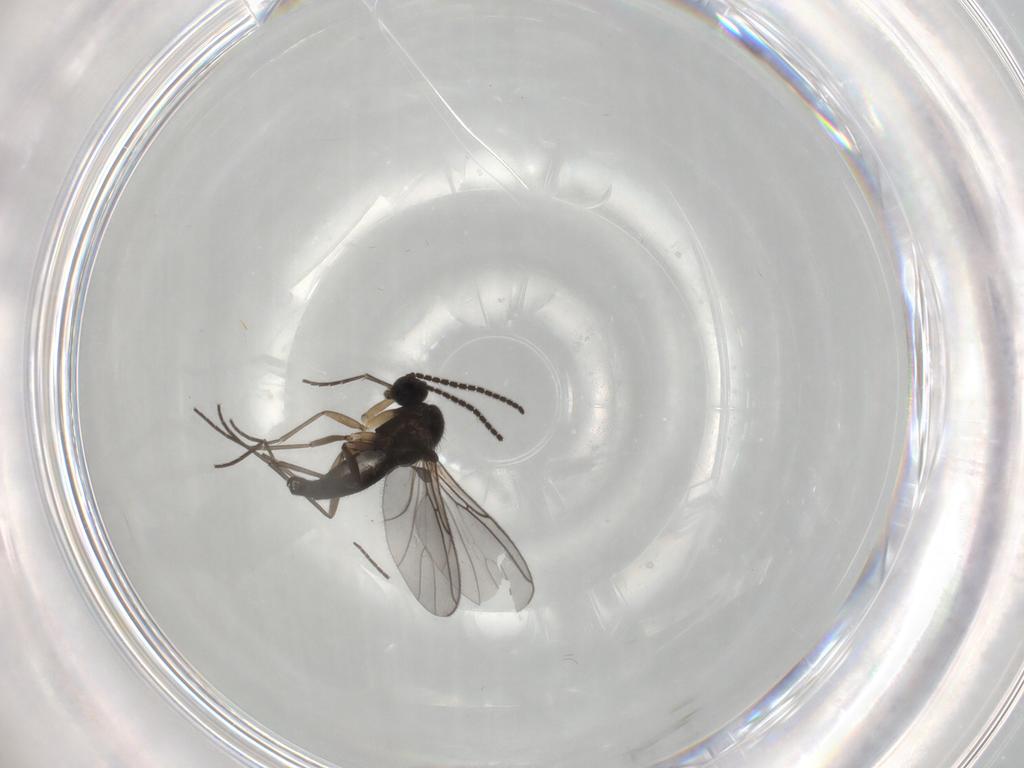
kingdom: Animalia
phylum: Arthropoda
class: Insecta
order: Diptera
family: Sciaridae
